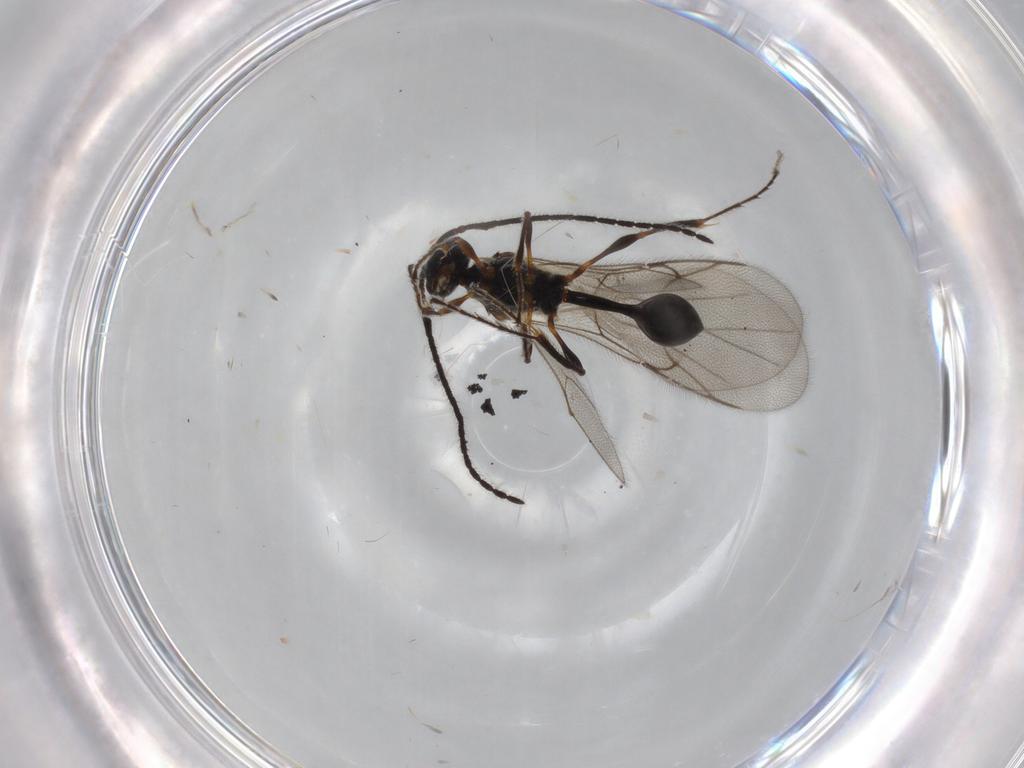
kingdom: Animalia
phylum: Arthropoda
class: Insecta
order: Hymenoptera
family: Diapriidae
